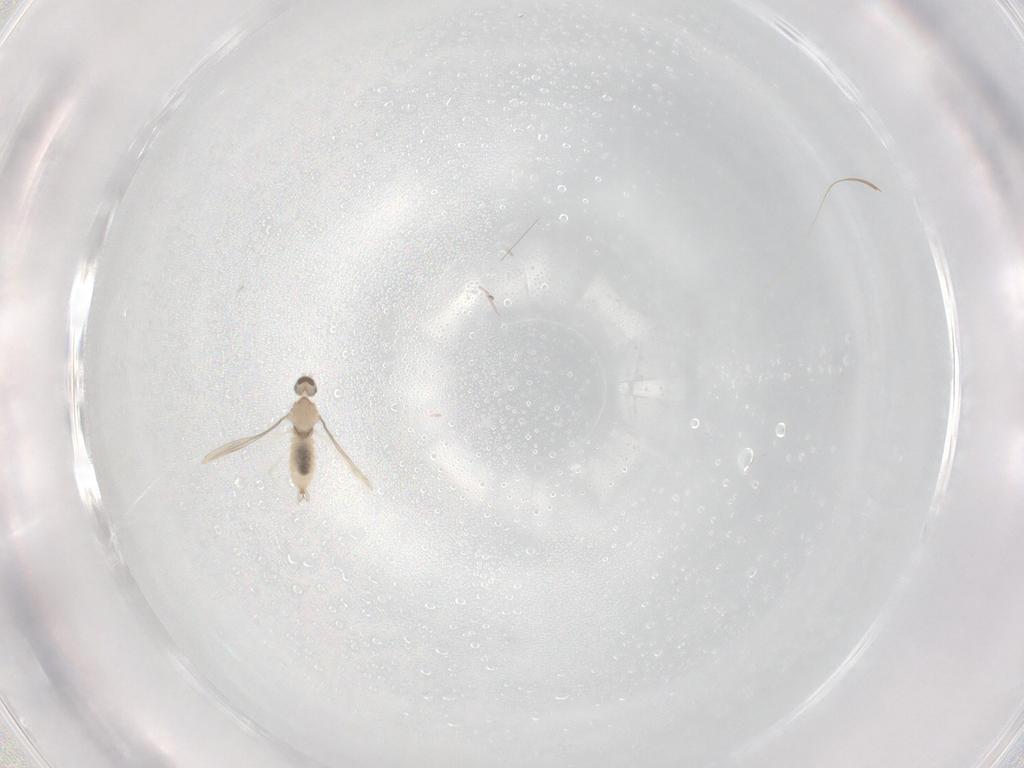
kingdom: Animalia
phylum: Arthropoda
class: Insecta
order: Diptera
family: Cecidomyiidae
